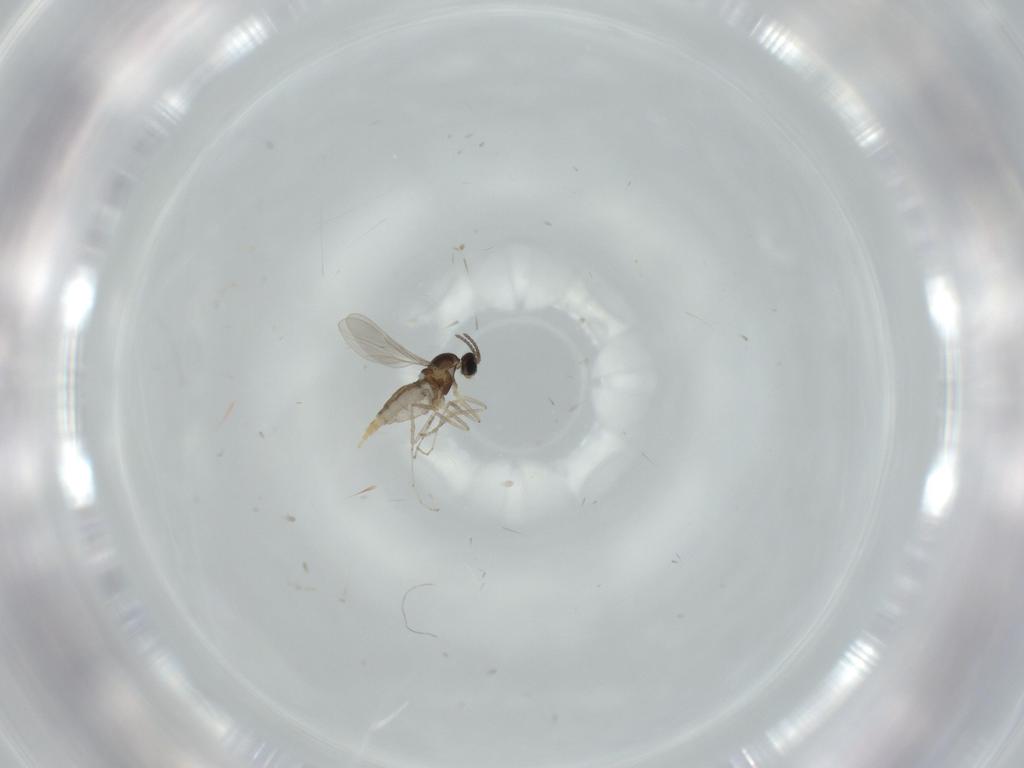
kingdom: Animalia
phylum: Arthropoda
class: Insecta
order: Diptera
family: Cecidomyiidae
